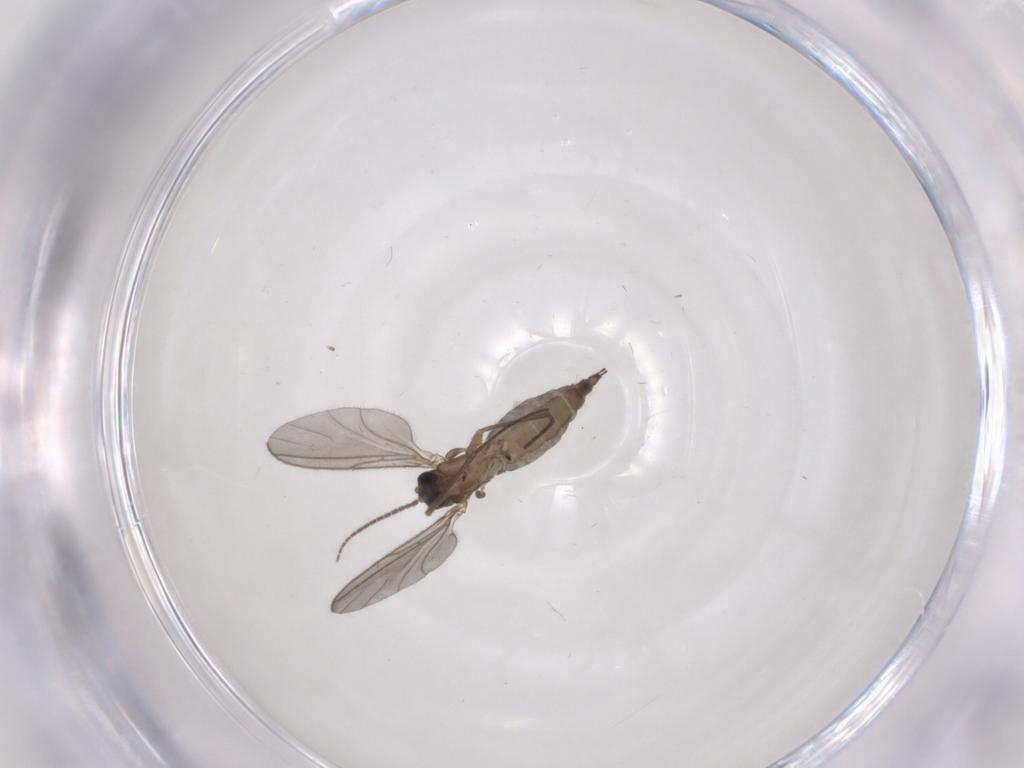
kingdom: Animalia
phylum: Arthropoda
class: Insecta
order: Diptera
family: Sciaridae
